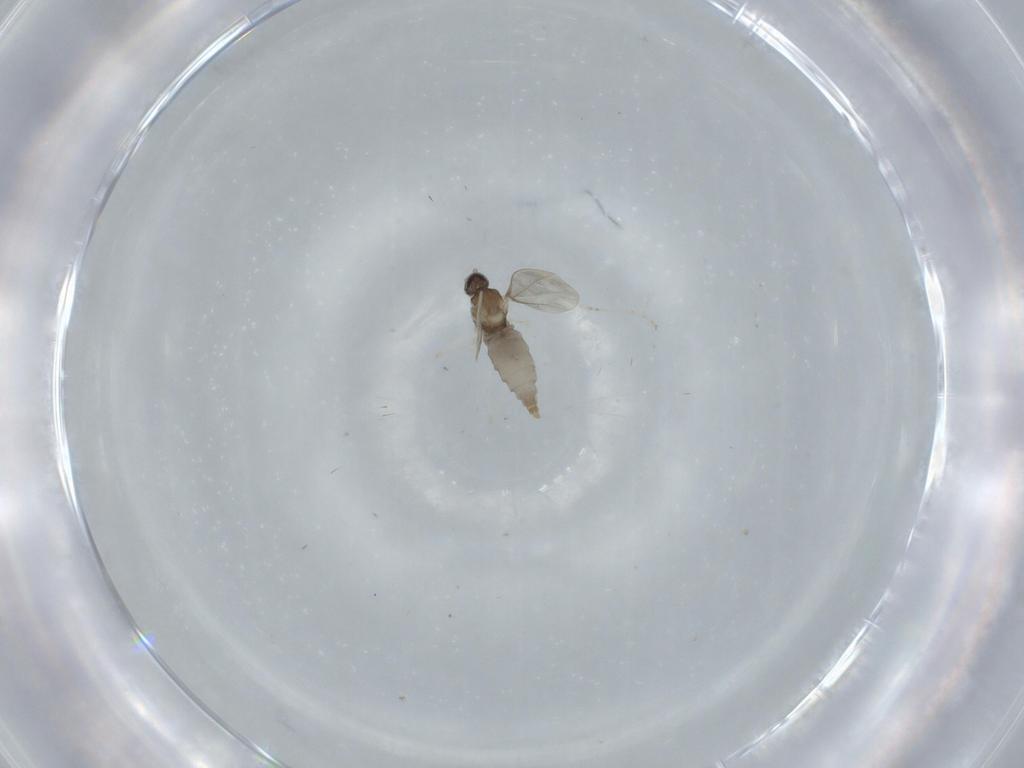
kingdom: Animalia
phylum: Arthropoda
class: Insecta
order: Diptera
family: Cecidomyiidae
